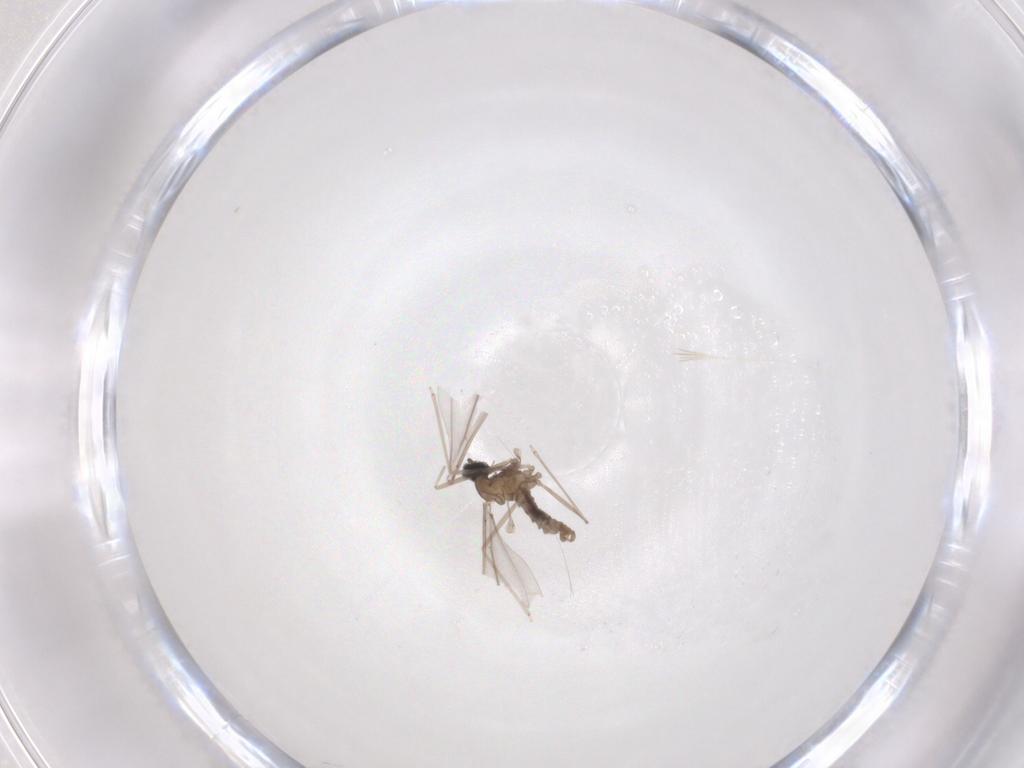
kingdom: Animalia
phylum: Arthropoda
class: Insecta
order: Diptera
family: Cecidomyiidae
